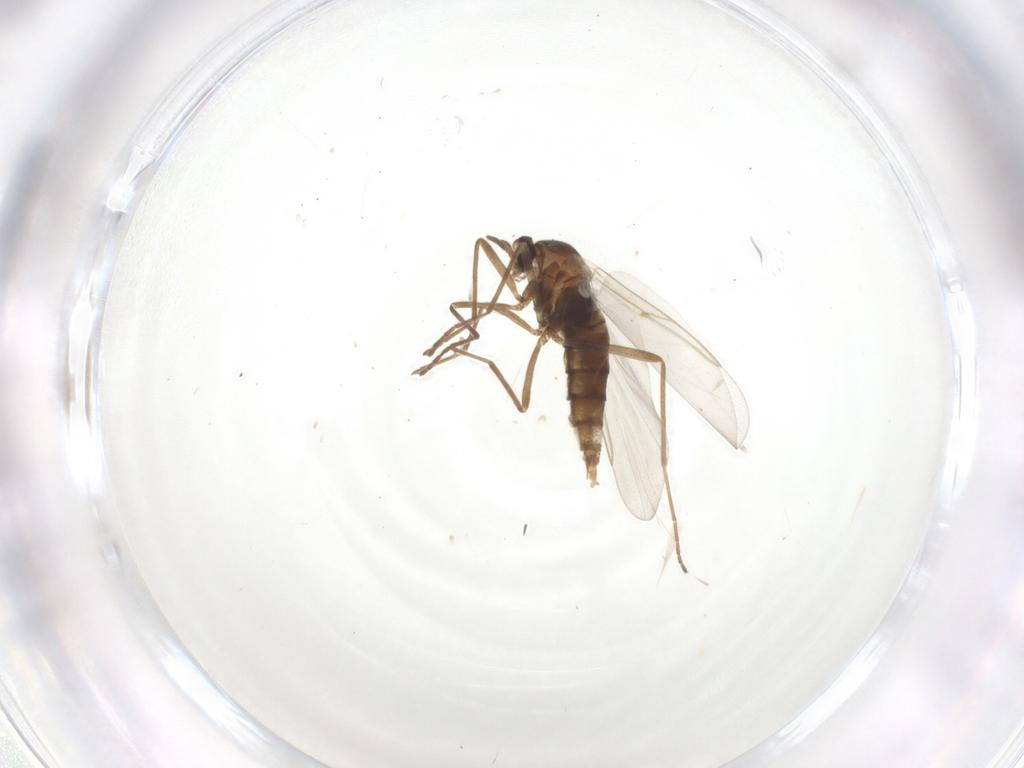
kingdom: Animalia
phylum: Arthropoda
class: Insecta
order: Diptera
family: Cecidomyiidae
